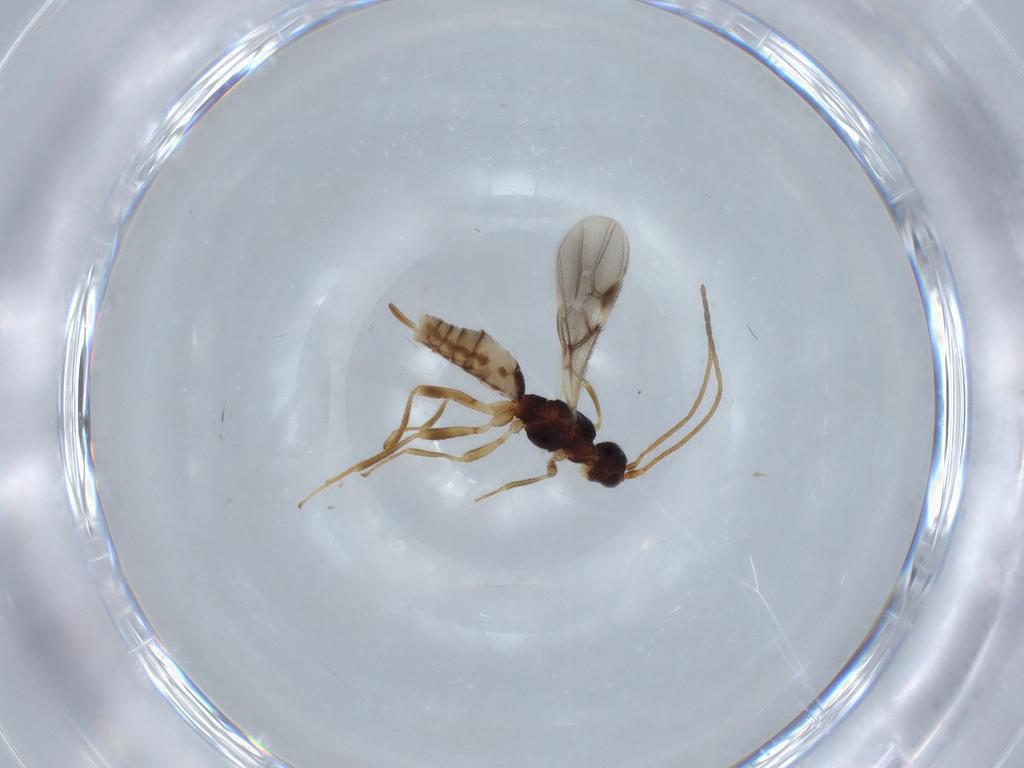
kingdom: Animalia
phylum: Arthropoda
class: Insecta
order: Hymenoptera
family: Braconidae
